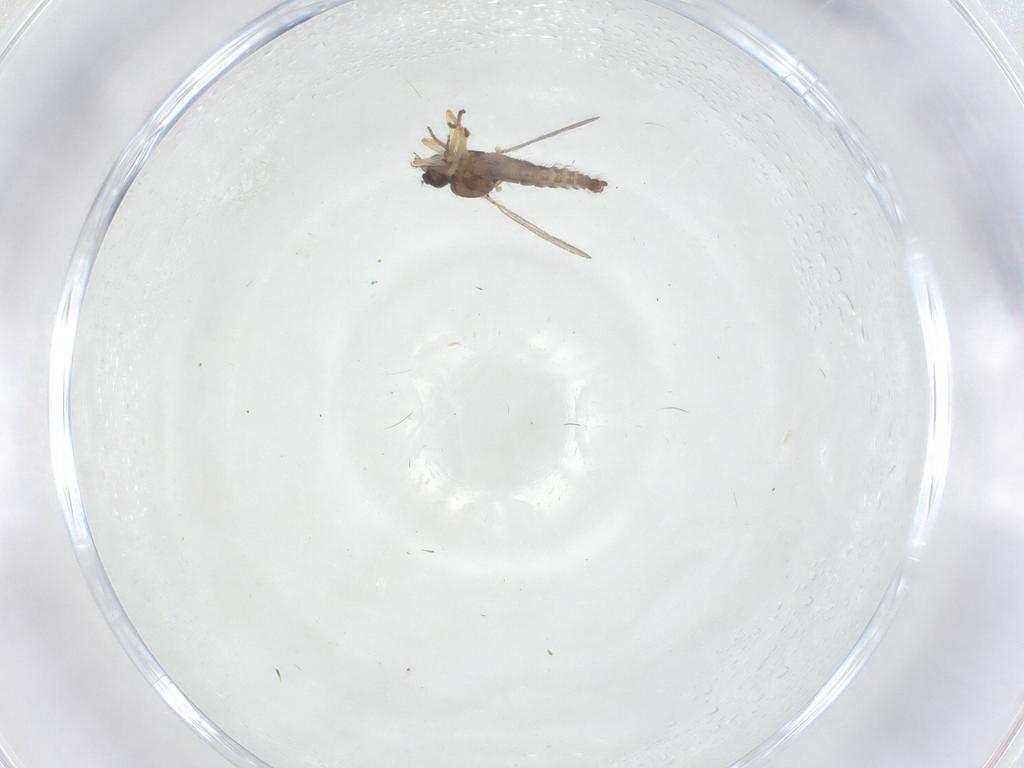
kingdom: Animalia
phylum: Arthropoda
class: Insecta
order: Diptera
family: Ceratopogonidae
